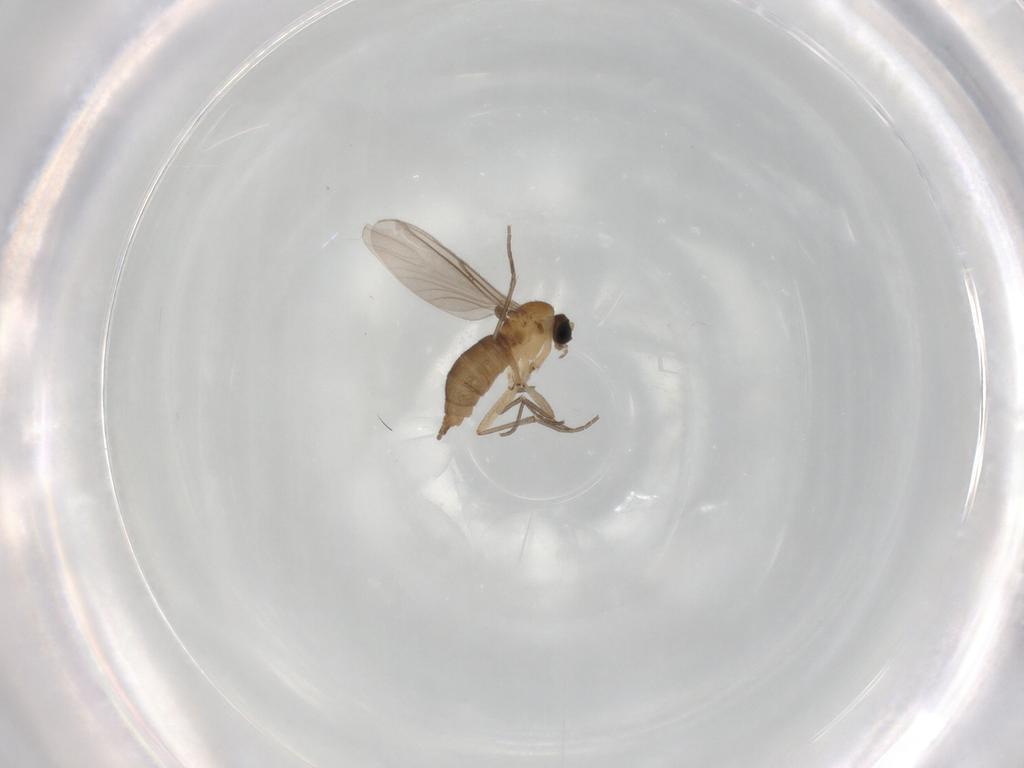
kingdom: Animalia
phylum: Arthropoda
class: Insecta
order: Diptera
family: Sciaridae
